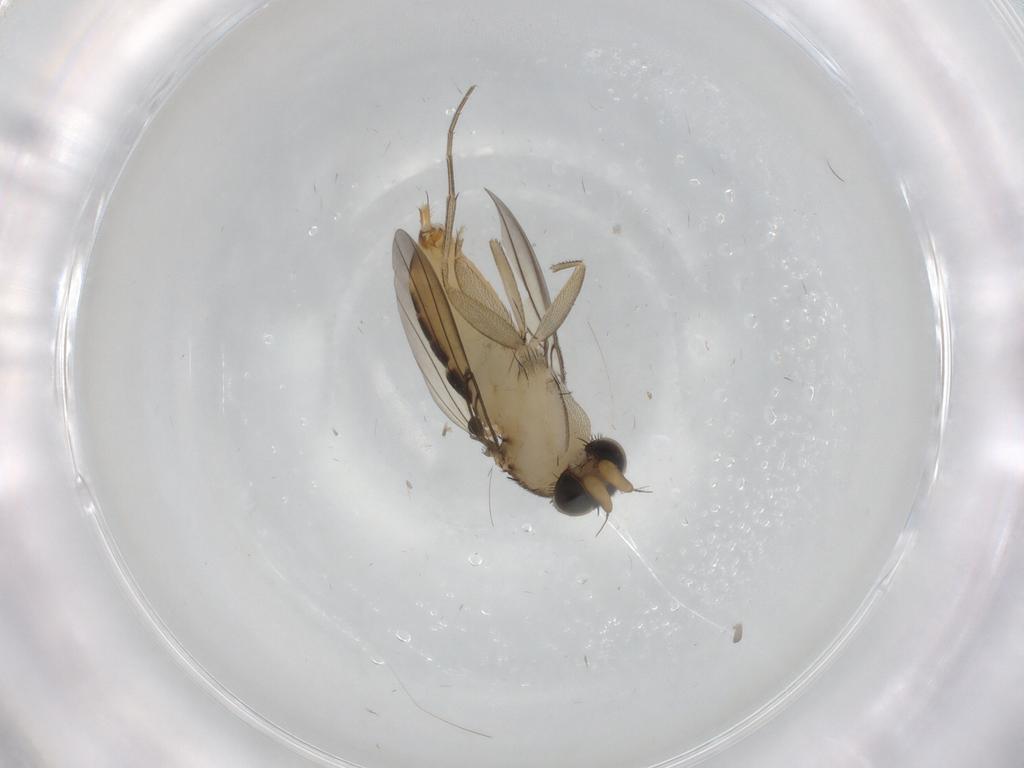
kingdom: Animalia
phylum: Arthropoda
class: Insecta
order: Diptera
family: Phoridae
